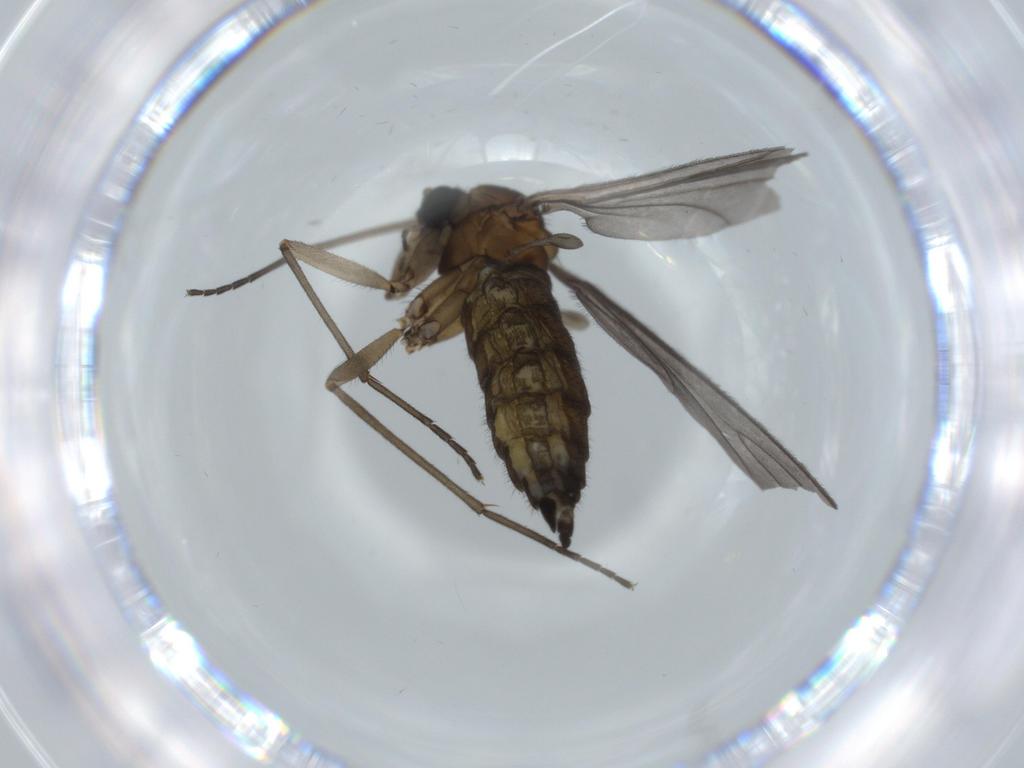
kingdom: Animalia
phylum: Arthropoda
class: Insecta
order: Diptera
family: Sciaridae
